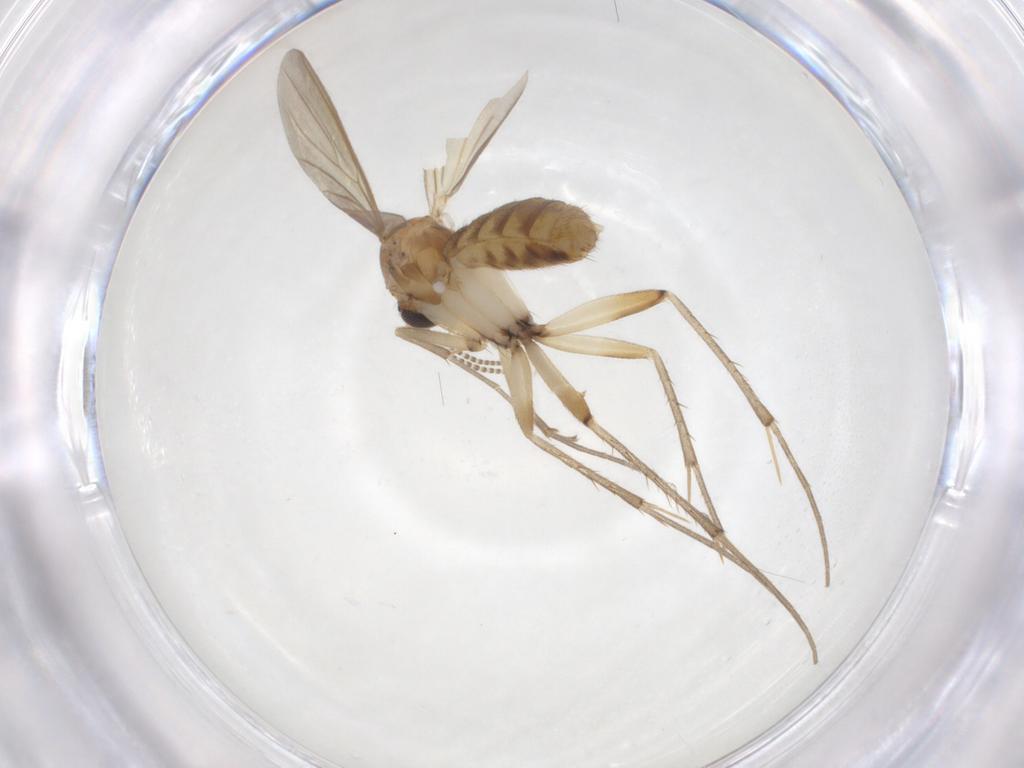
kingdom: Animalia
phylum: Arthropoda
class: Insecta
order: Diptera
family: Mycetophilidae
